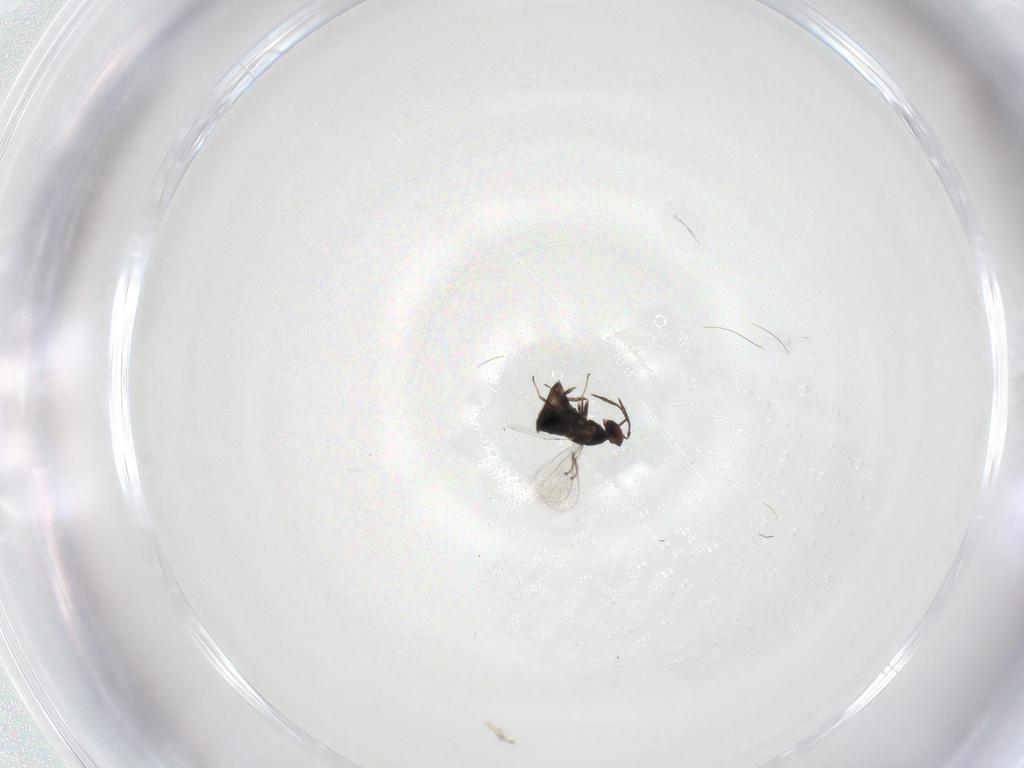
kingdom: Animalia
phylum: Arthropoda
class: Insecta
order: Hymenoptera
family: Trichogrammatidae
